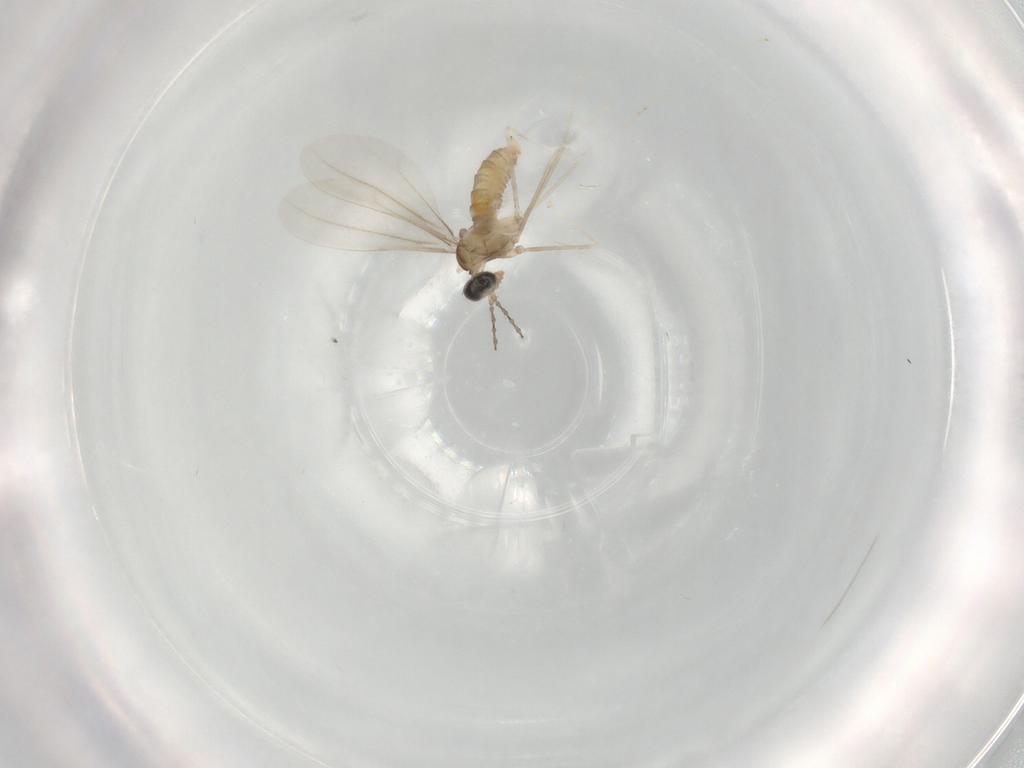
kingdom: Animalia
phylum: Arthropoda
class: Insecta
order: Diptera
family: Cecidomyiidae
